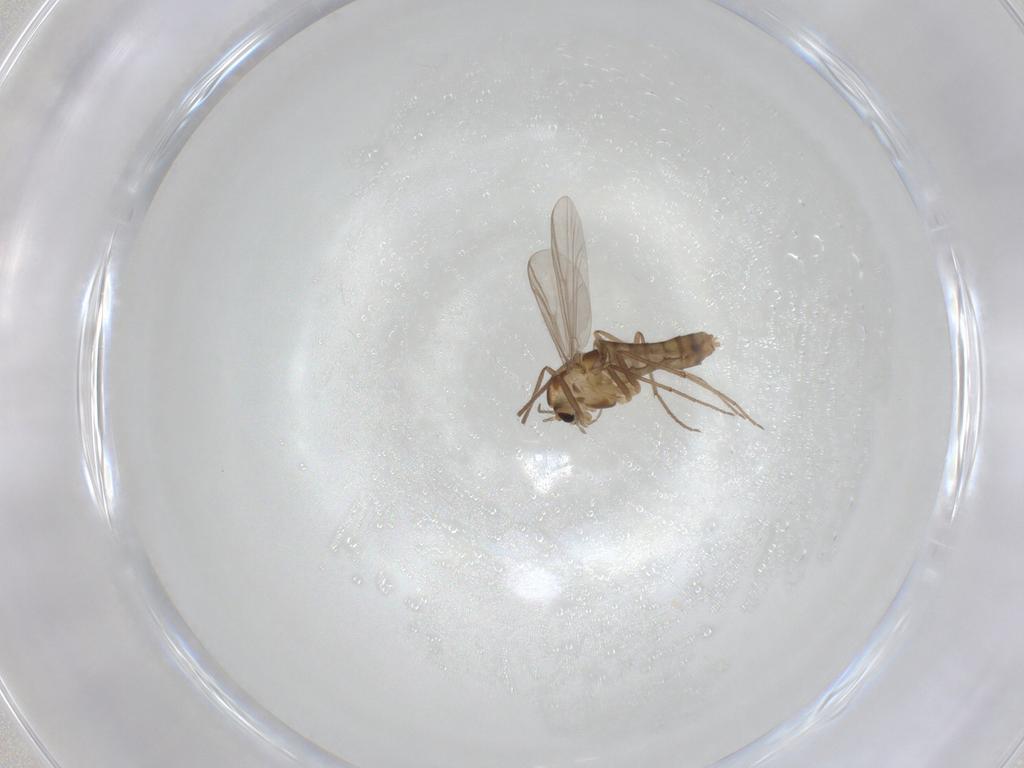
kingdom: Animalia
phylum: Arthropoda
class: Insecta
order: Diptera
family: Chironomidae
